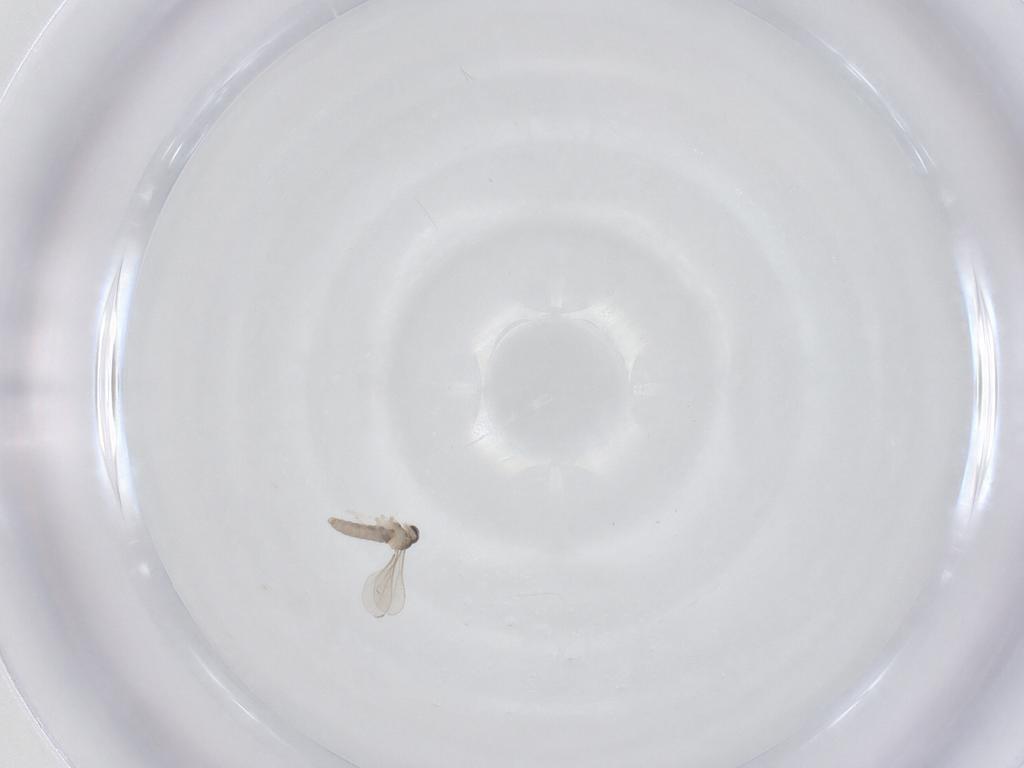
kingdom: Animalia
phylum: Arthropoda
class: Insecta
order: Diptera
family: Psychodidae
